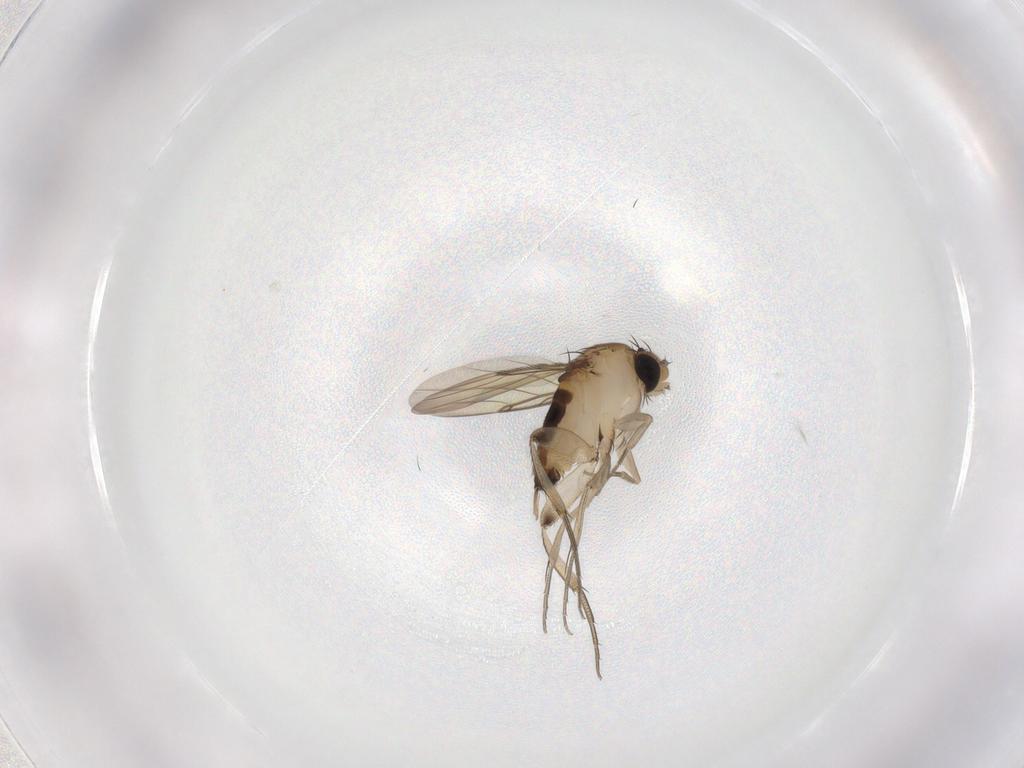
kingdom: Animalia
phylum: Arthropoda
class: Insecta
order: Diptera
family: Phoridae
